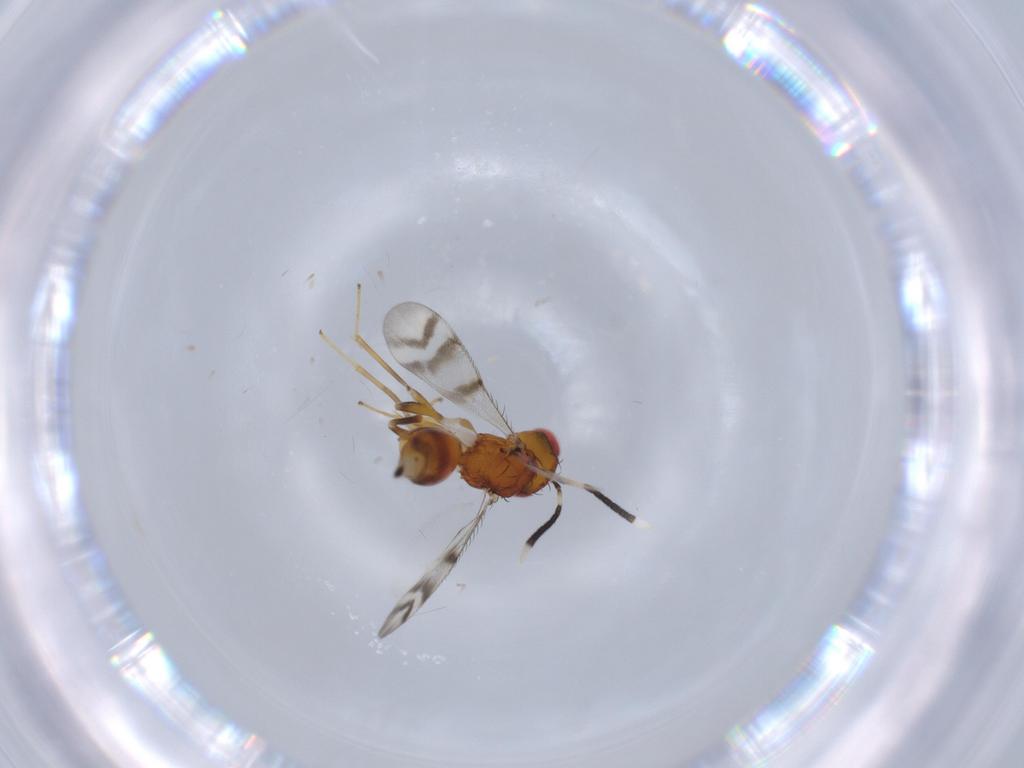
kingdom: Animalia
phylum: Arthropoda
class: Insecta
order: Hymenoptera
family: Diparidae
